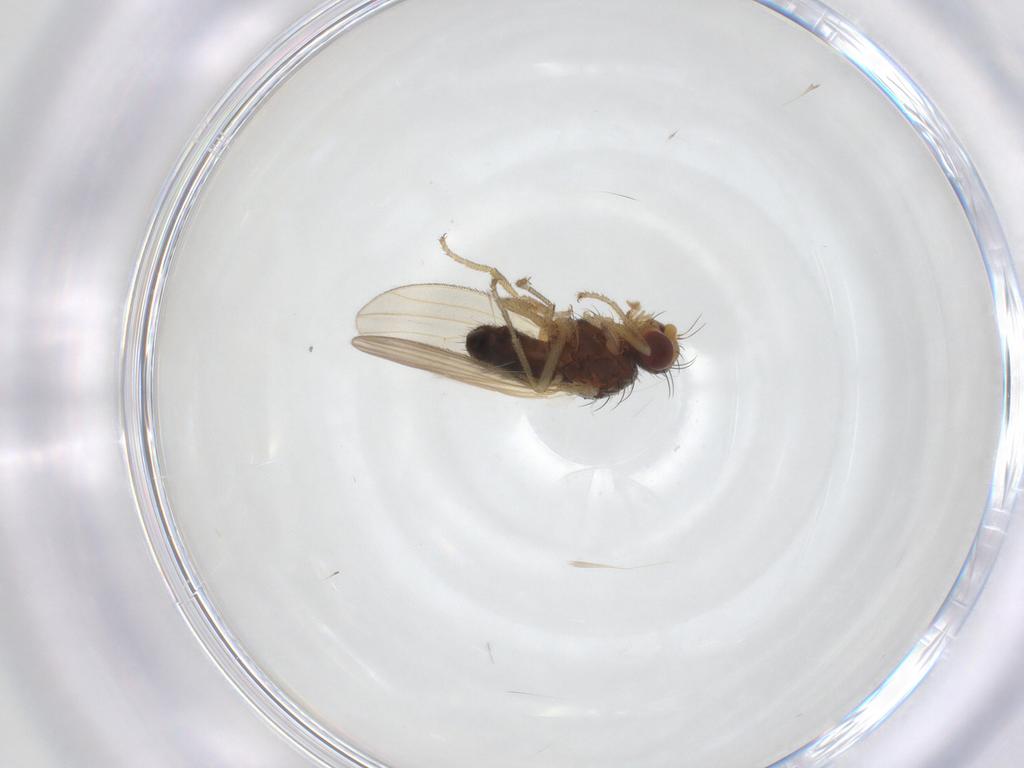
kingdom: Animalia
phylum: Arthropoda
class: Insecta
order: Diptera
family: Heleomyzidae
